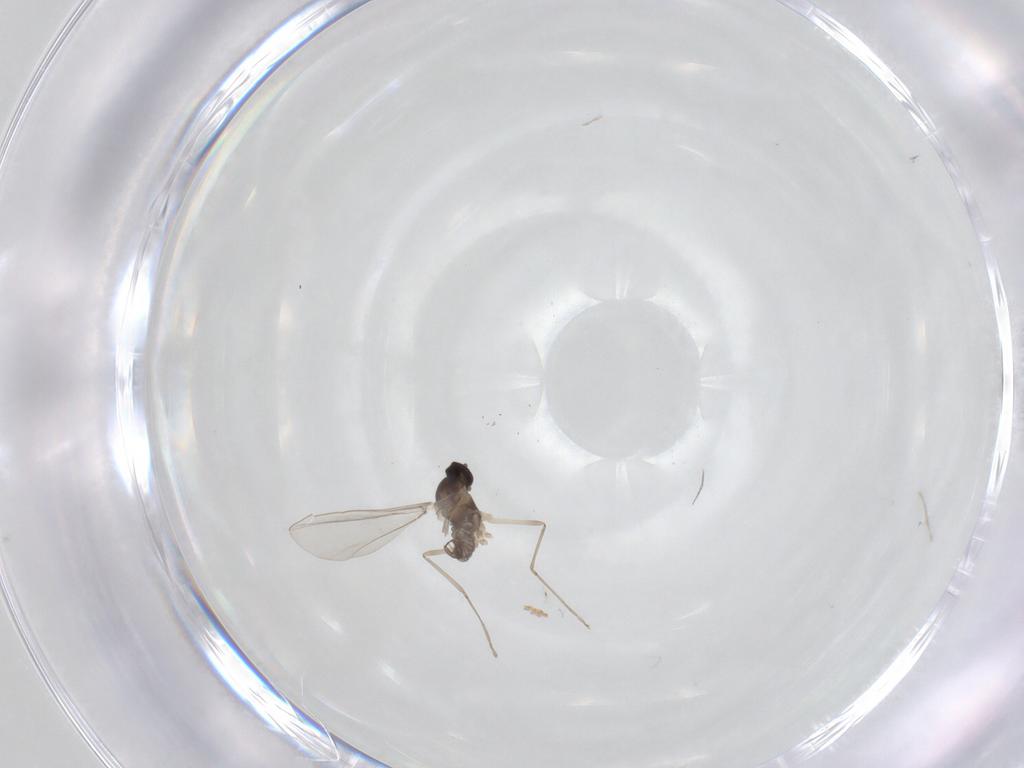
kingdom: Animalia
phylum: Arthropoda
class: Insecta
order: Diptera
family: Cecidomyiidae
